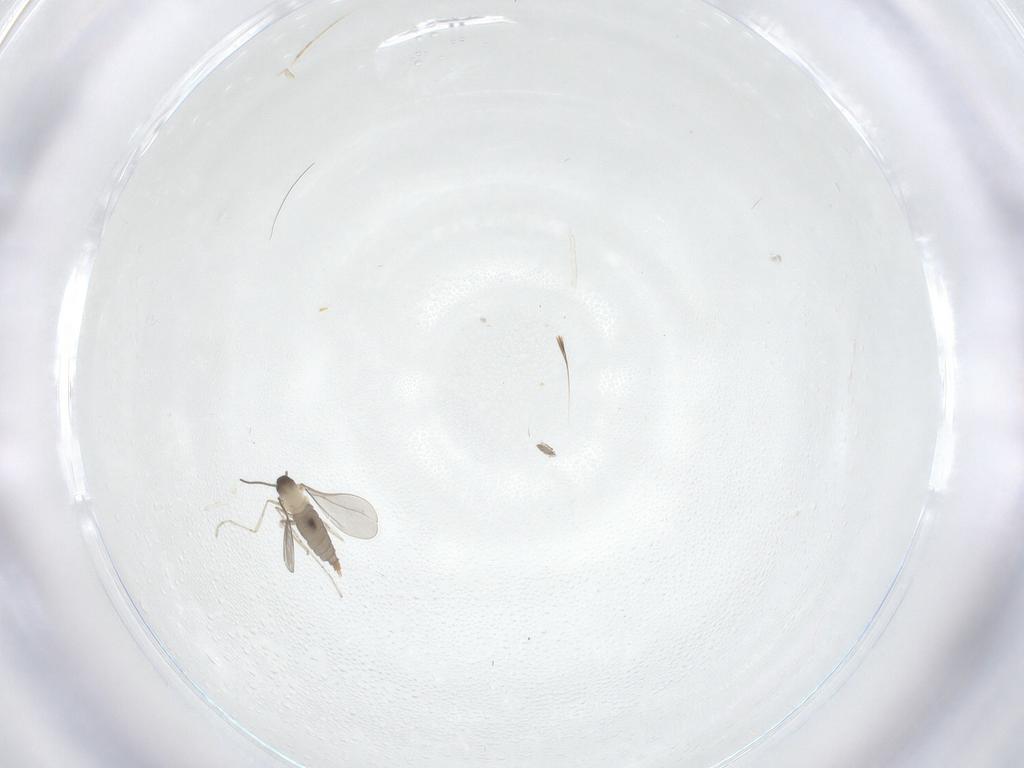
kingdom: Animalia
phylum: Arthropoda
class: Insecta
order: Diptera
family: Cecidomyiidae
